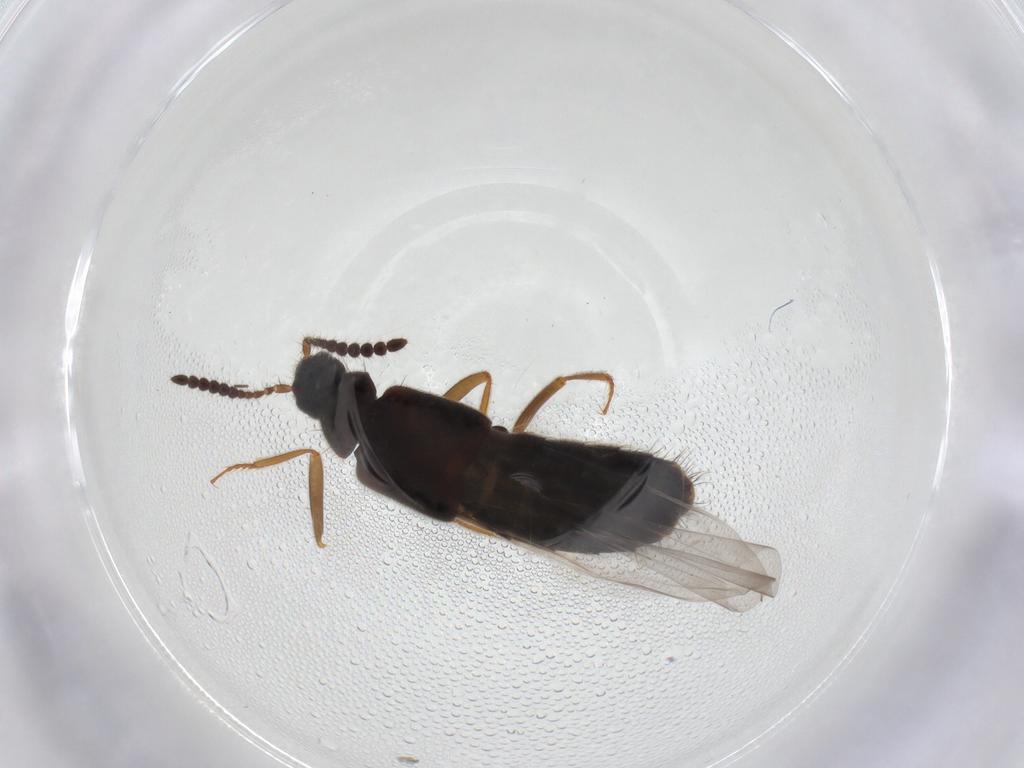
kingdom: Animalia
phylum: Arthropoda
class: Insecta
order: Coleoptera
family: Staphylinidae
